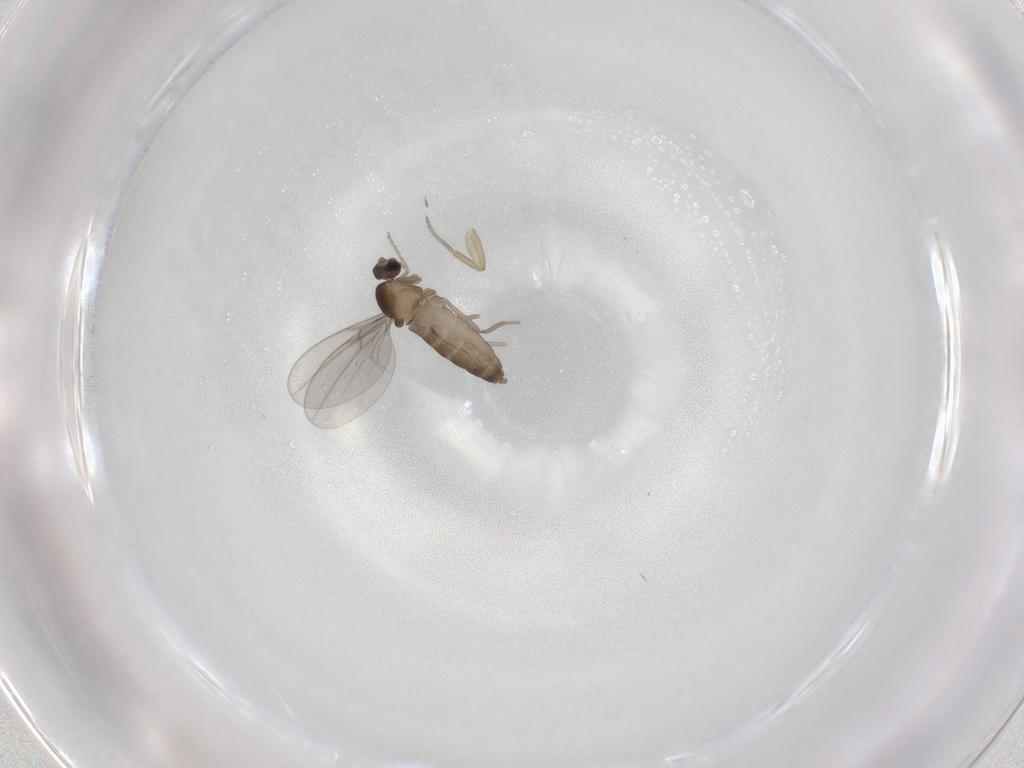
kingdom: Animalia
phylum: Arthropoda
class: Insecta
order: Diptera
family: Cecidomyiidae
